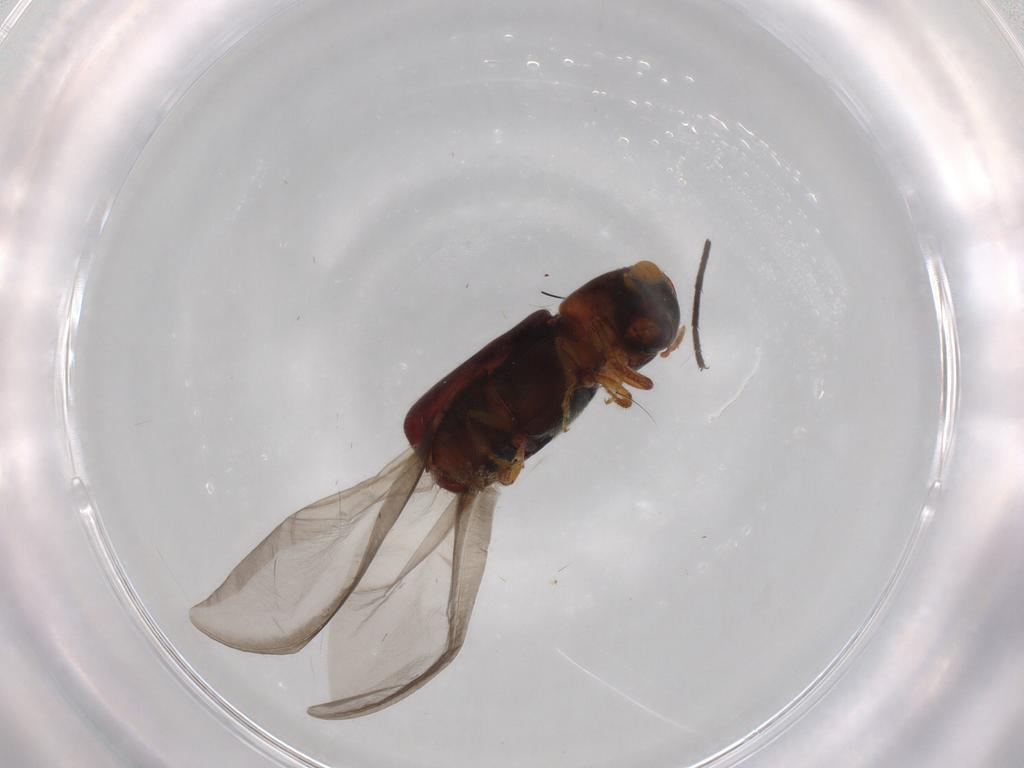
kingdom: Animalia
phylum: Arthropoda
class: Insecta
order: Coleoptera
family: Curculionidae
